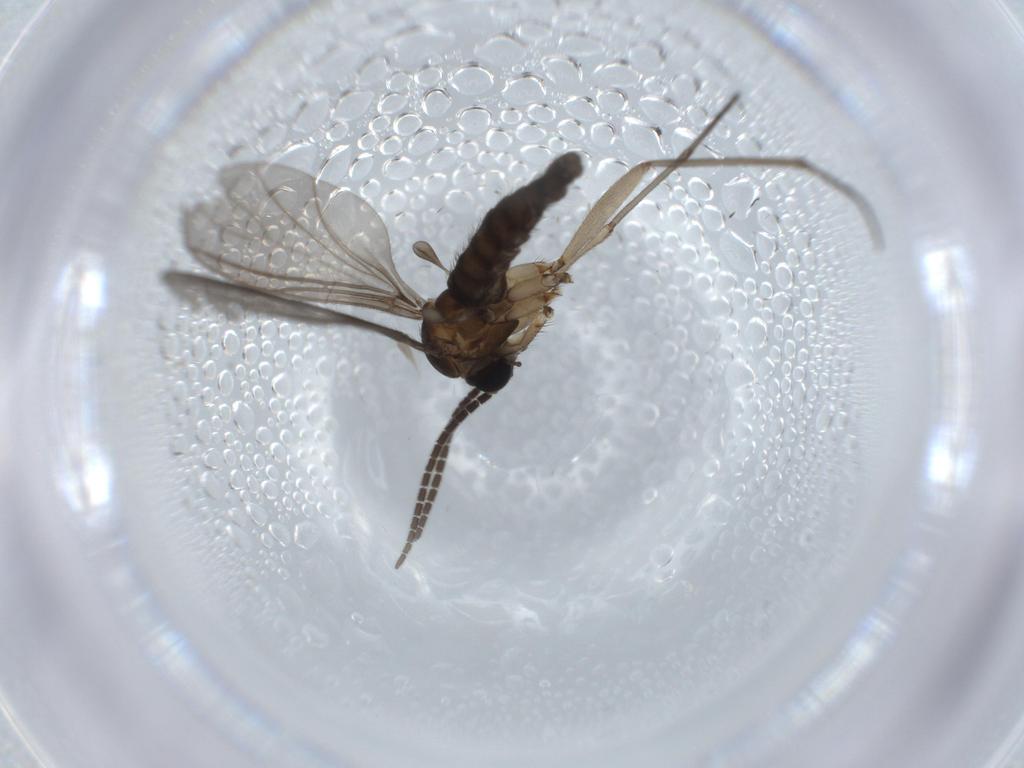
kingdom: Animalia
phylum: Arthropoda
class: Insecta
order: Diptera
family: Sciaridae
